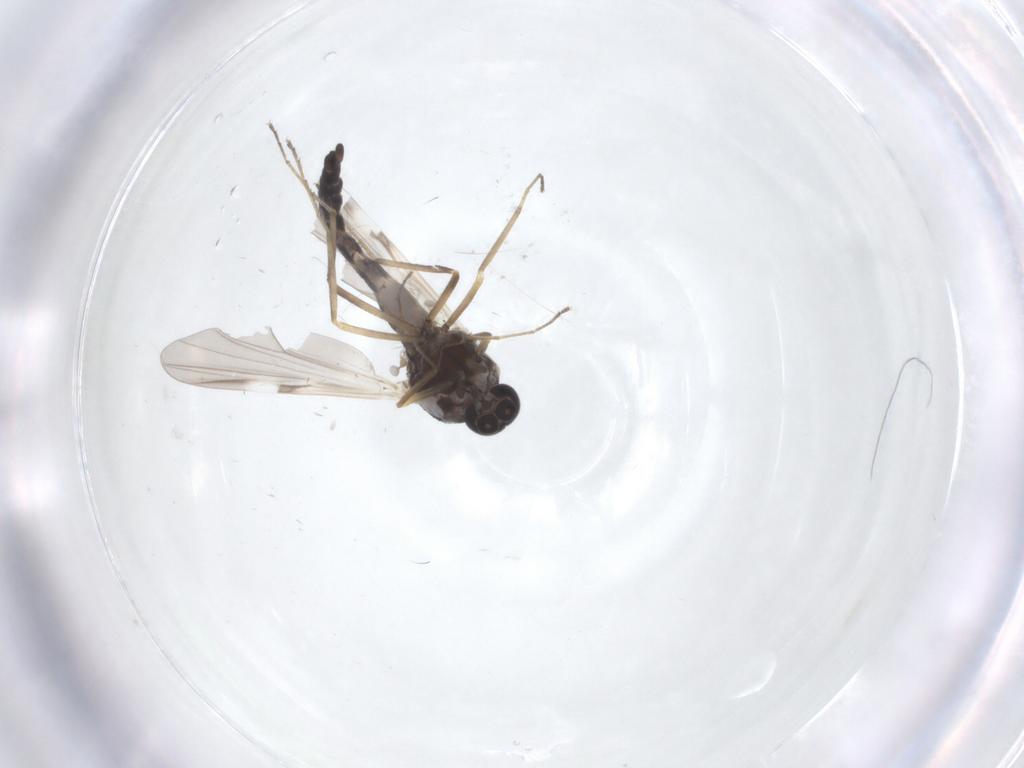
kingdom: Animalia
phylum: Arthropoda
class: Insecta
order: Diptera
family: Ceratopogonidae
